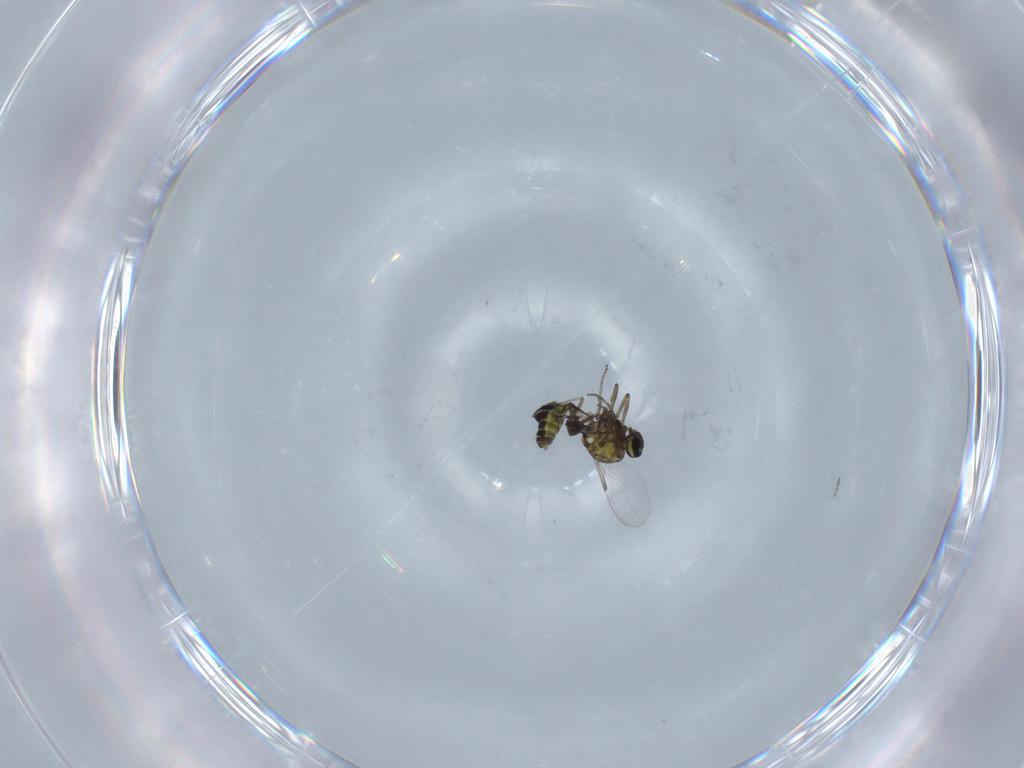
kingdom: Animalia
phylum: Arthropoda
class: Insecta
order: Diptera
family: Ceratopogonidae
